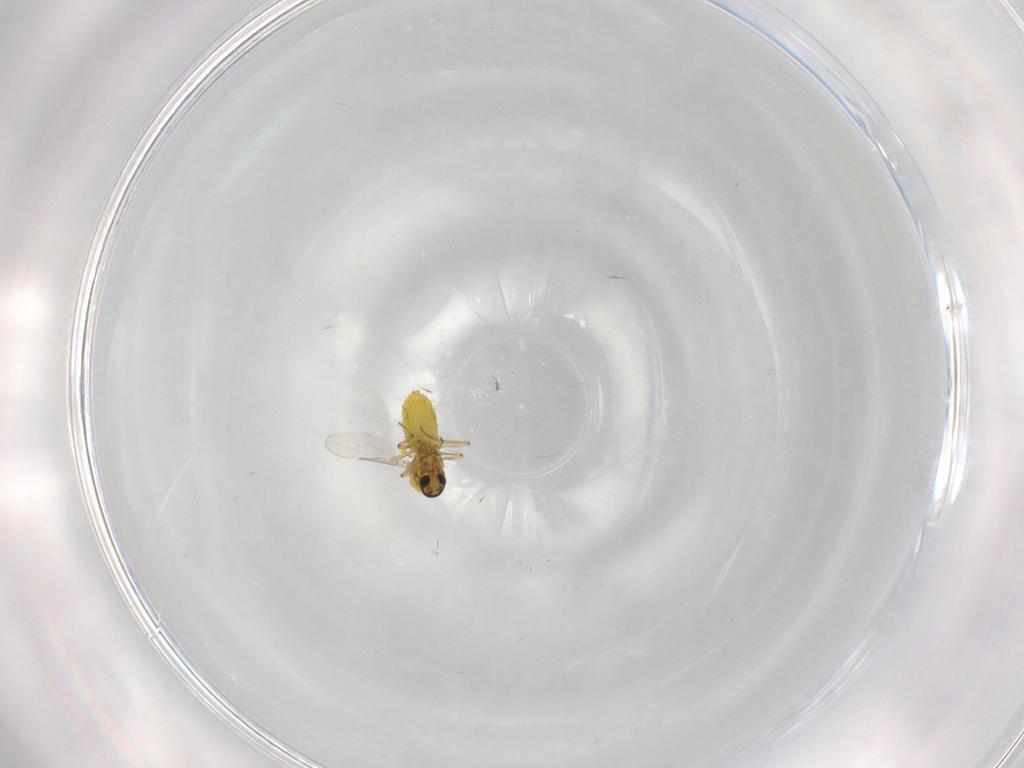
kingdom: Animalia
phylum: Arthropoda
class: Insecta
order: Diptera
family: Ceratopogonidae
